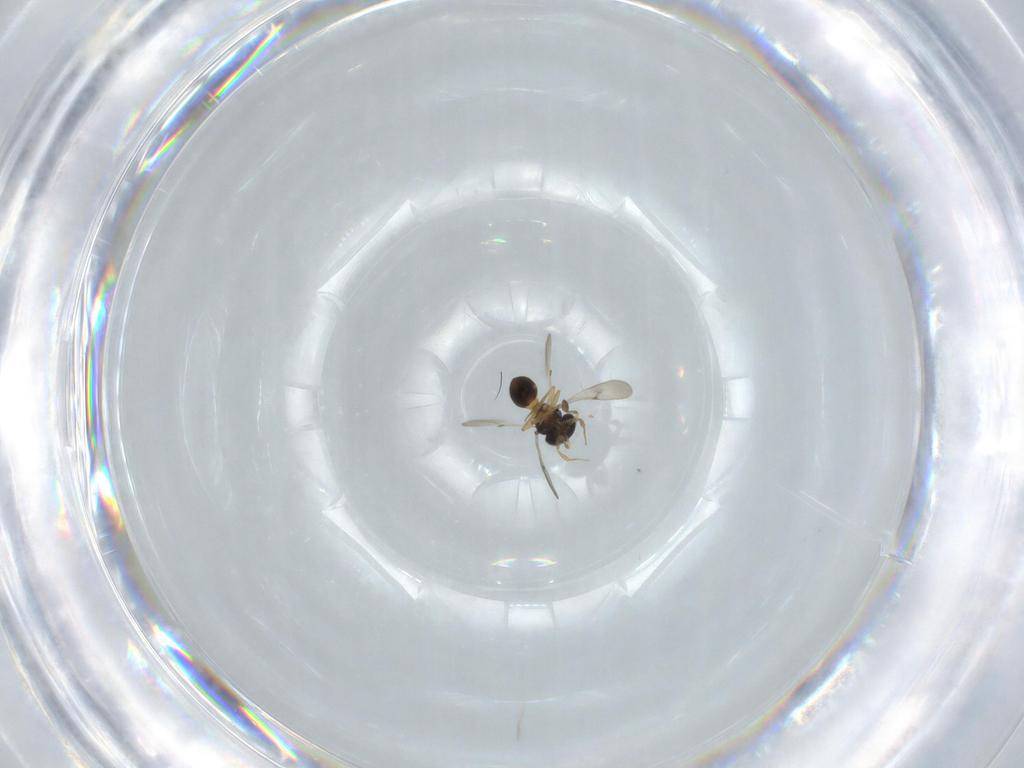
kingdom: Animalia
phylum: Arthropoda
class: Insecta
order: Hymenoptera
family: Scelionidae
